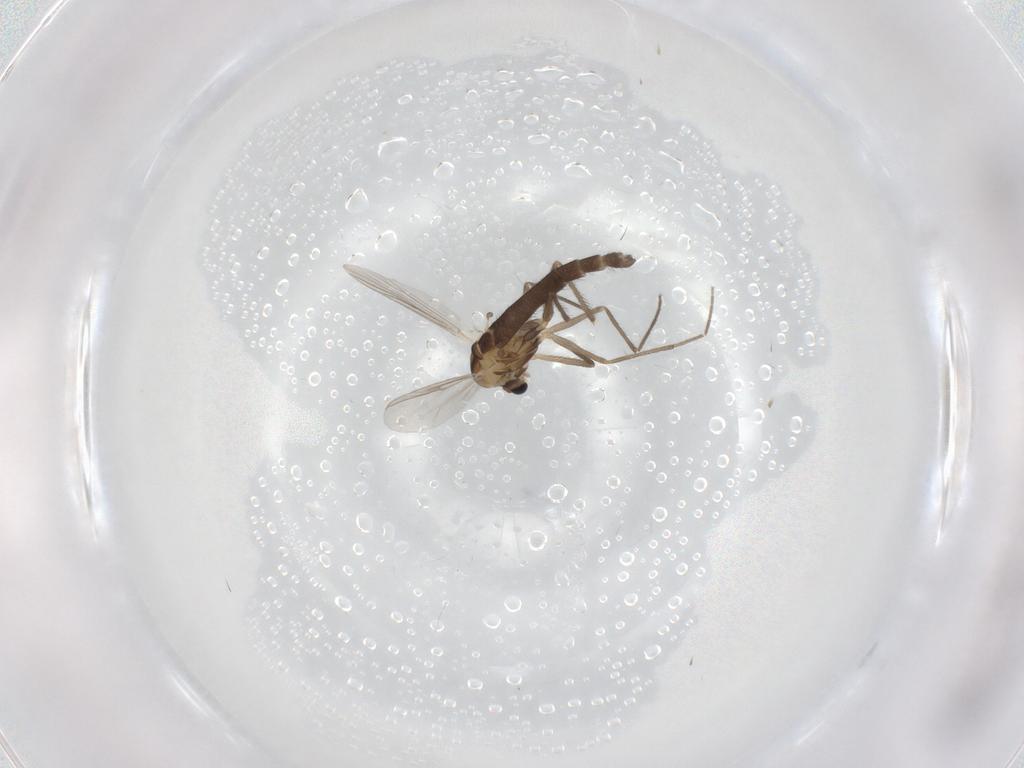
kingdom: Animalia
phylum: Arthropoda
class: Insecta
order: Diptera
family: Chironomidae
